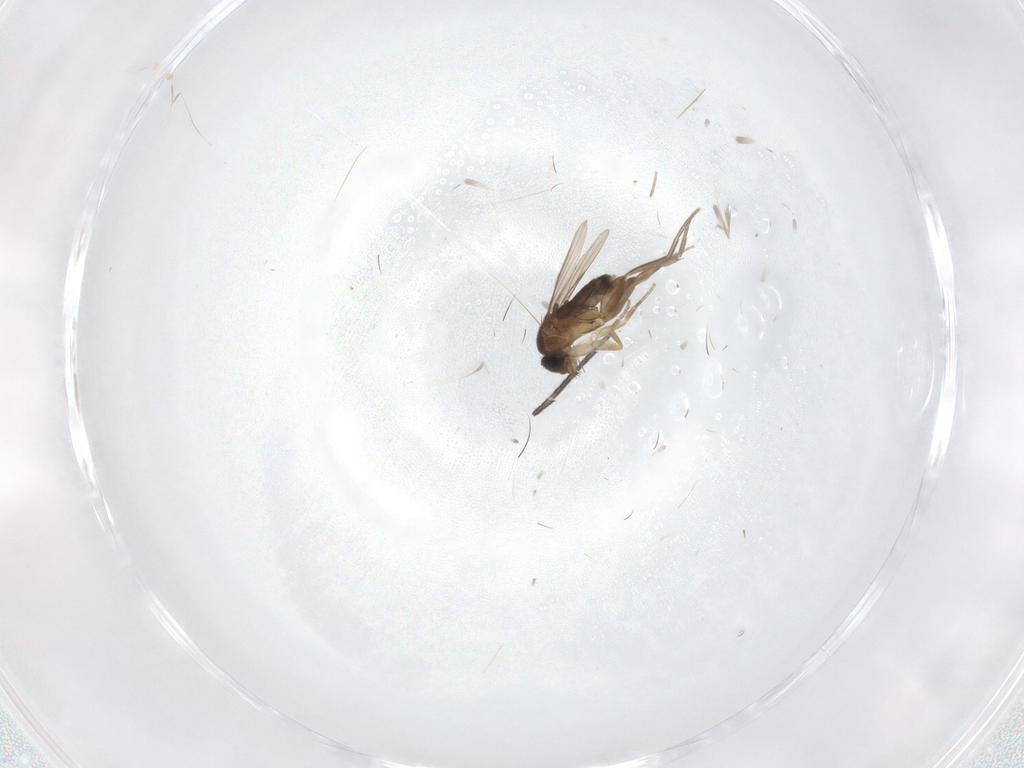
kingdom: Animalia
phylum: Arthropoda
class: Insecta
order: Diptera
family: Phoridae
